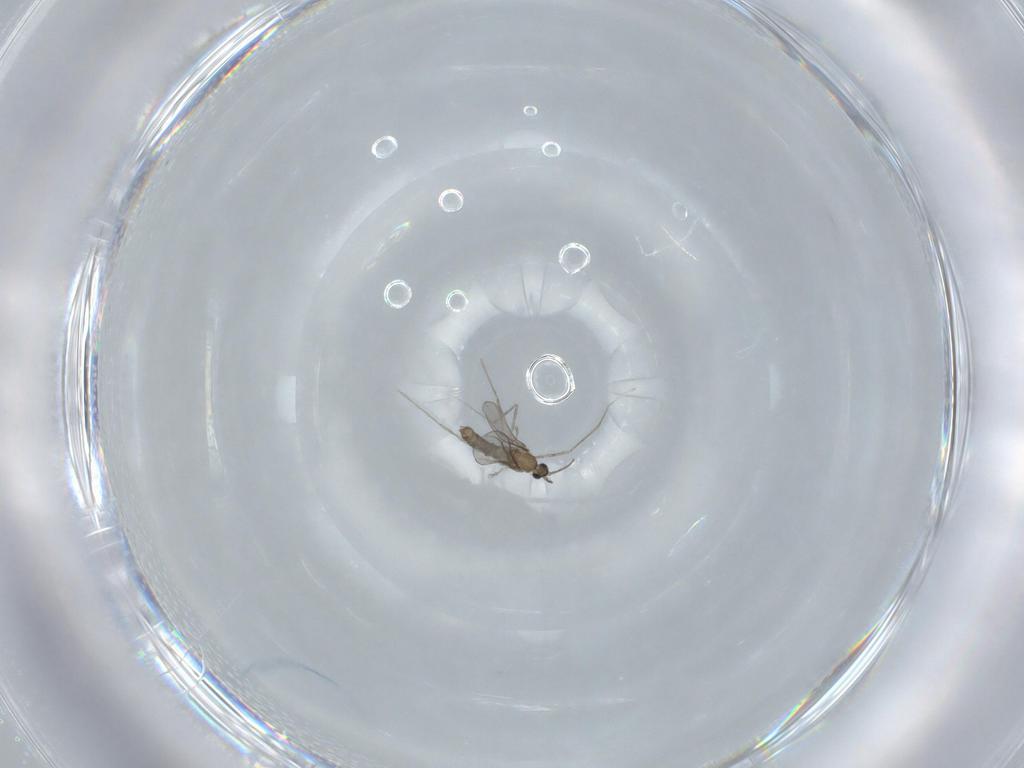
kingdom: Animalia
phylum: Arthropoda
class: Insecta
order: Diptera
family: Cecidomyiidae
